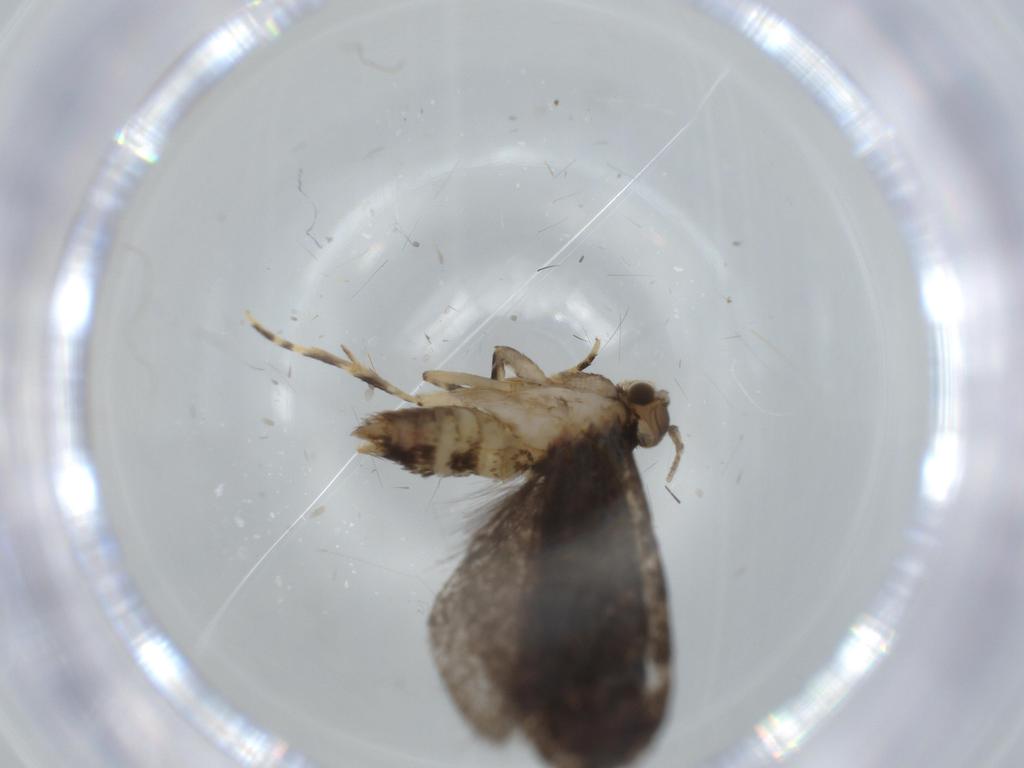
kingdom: Animalia
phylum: Arthropoda
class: Insecta
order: Lepidoptera
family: Tineidae
